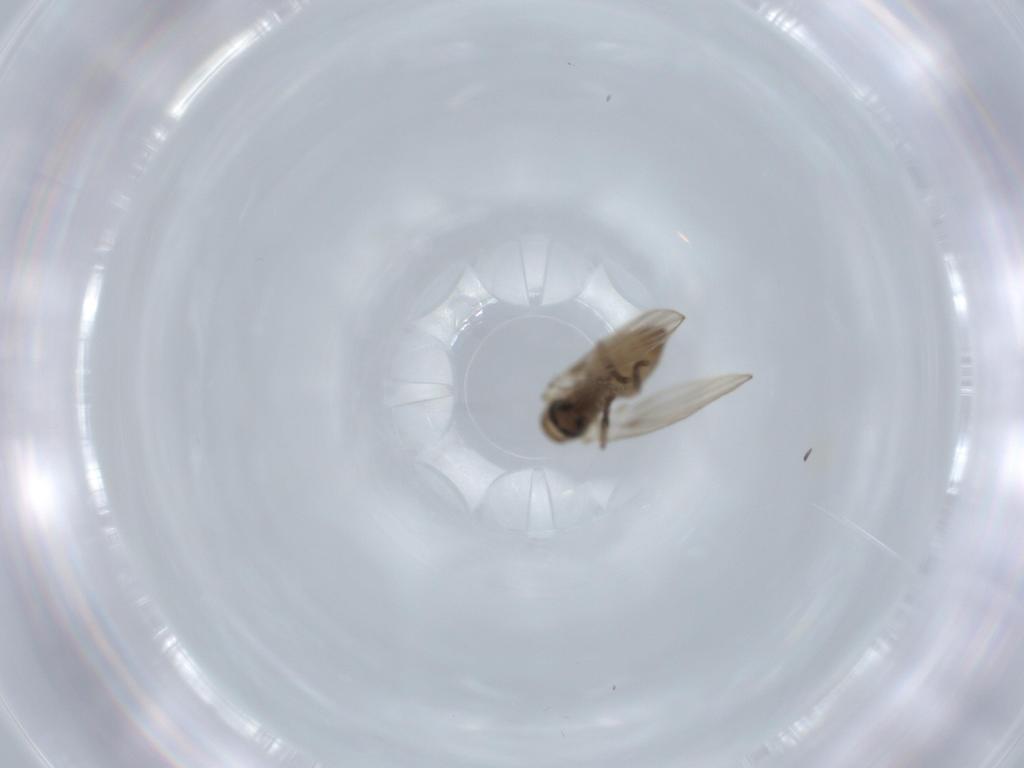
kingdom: Animalia
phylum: Arthropoda
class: Insecta
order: Diptera
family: Psychodidae
